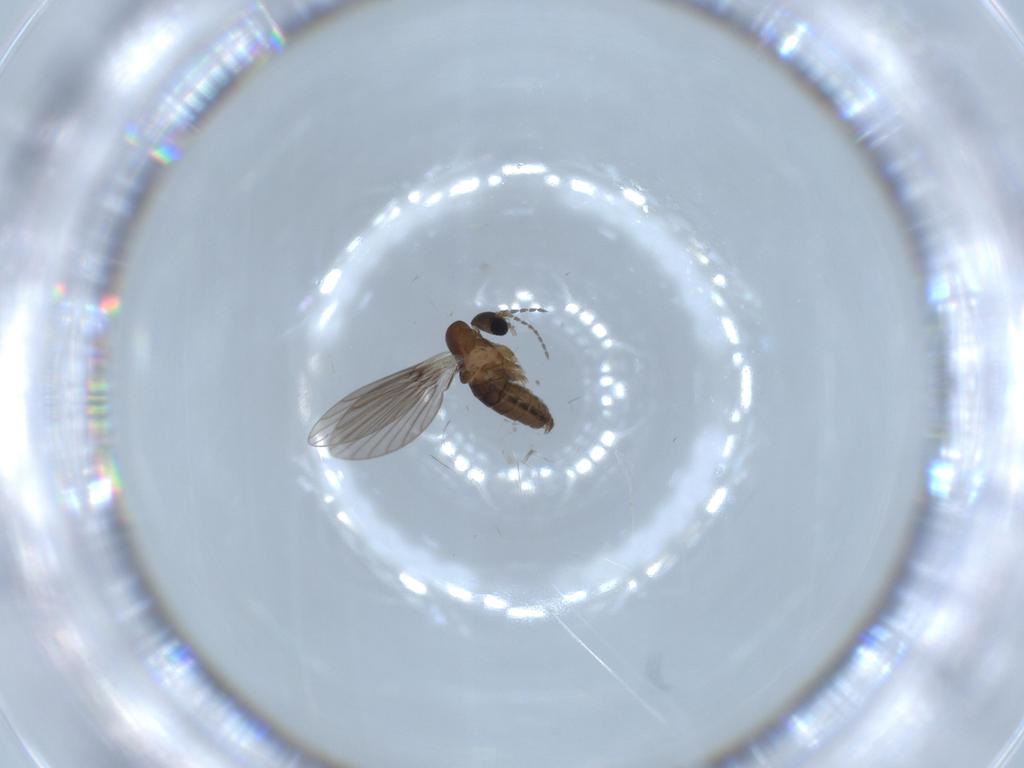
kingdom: Animalia
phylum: Arthropoda
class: Insecta
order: Diptera
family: Psychodidae
